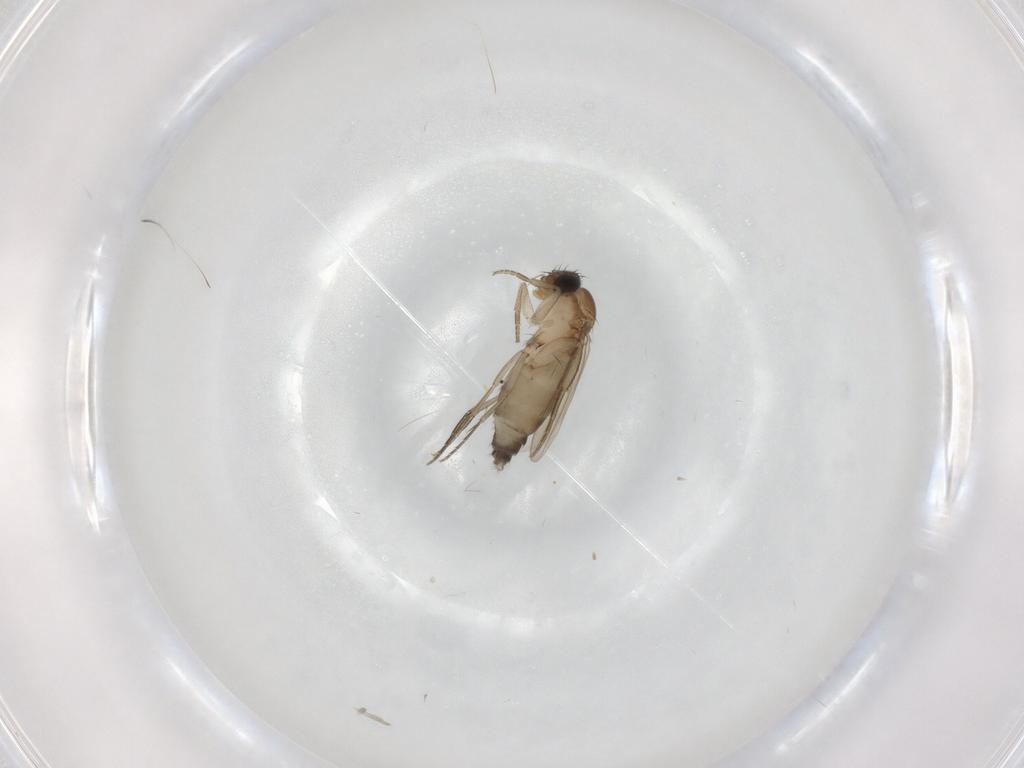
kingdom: Animalia
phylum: Arthropoda
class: Insecta
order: Diptera
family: Phoridae
